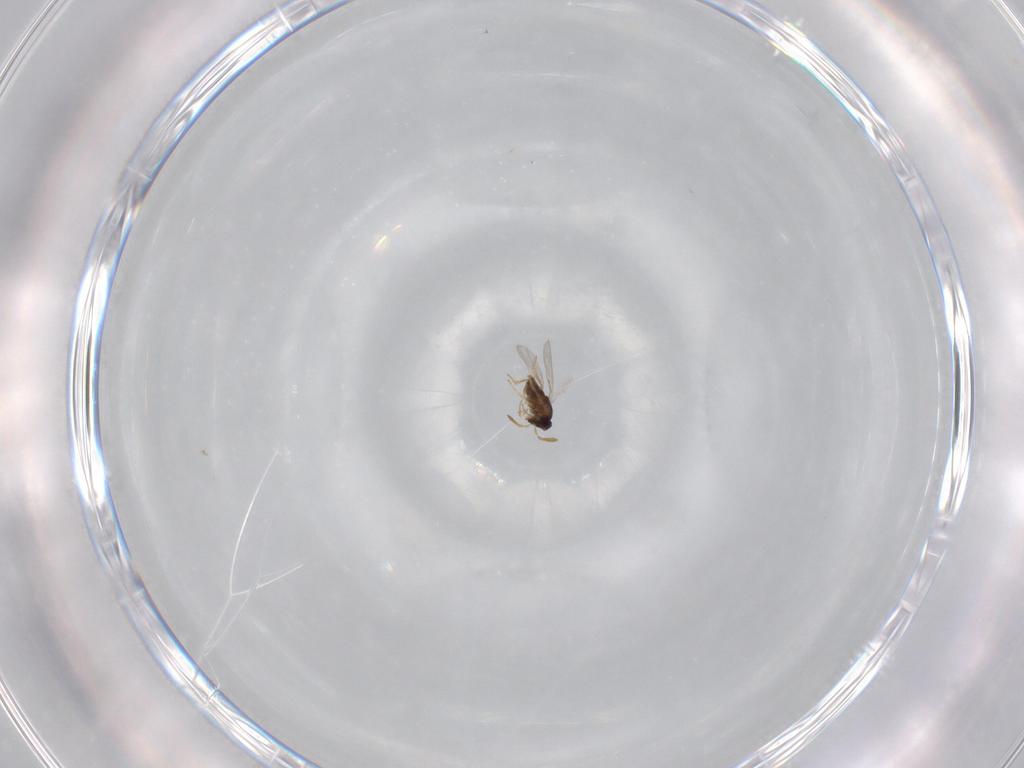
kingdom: Animalia
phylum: Arthropoda
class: Insecta
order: Hymenoptera
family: Encyrtidae
